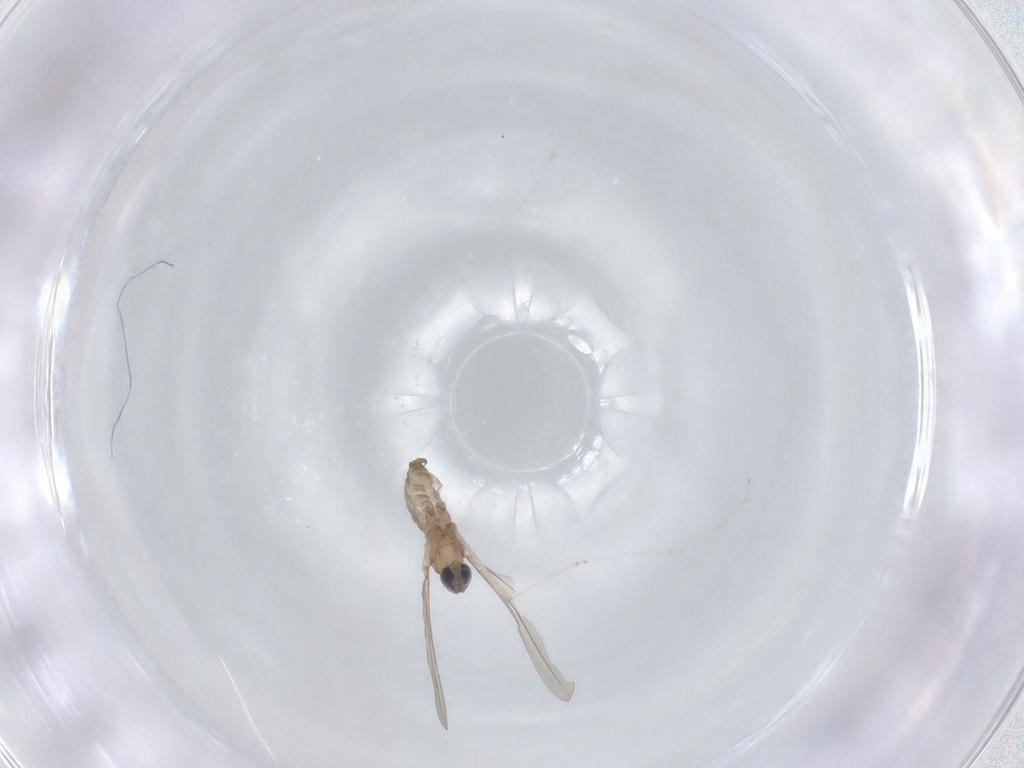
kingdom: Animalia
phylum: Arthropoda
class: Insecta
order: Diptera
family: Cecidomyiidae
